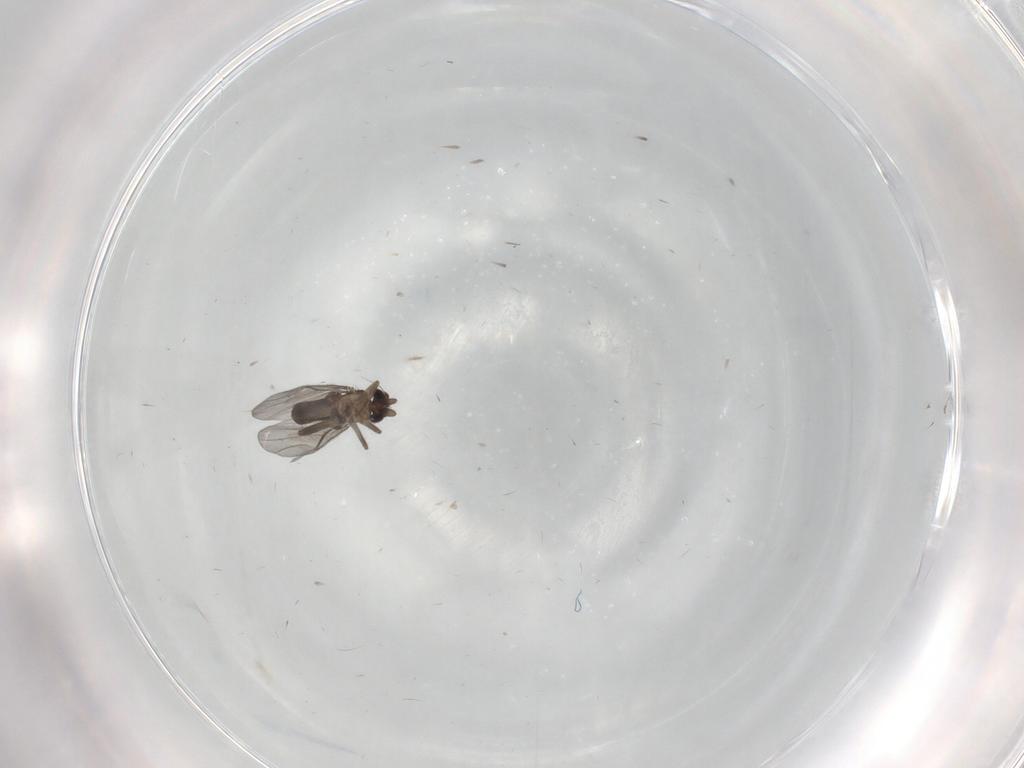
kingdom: Animalia
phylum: Arthropoda
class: Insecta
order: Diptera
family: Sciaridae
